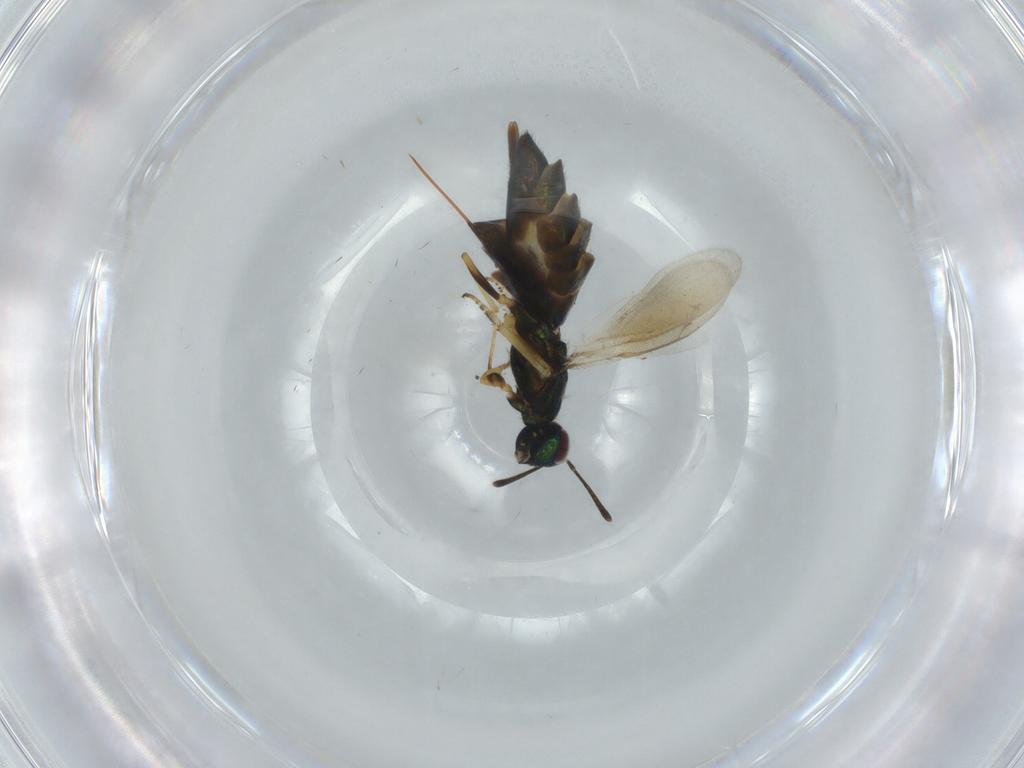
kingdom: Animalia
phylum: Arthropoda
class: Insecta
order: Hymenoptera
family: Eupelmidae
